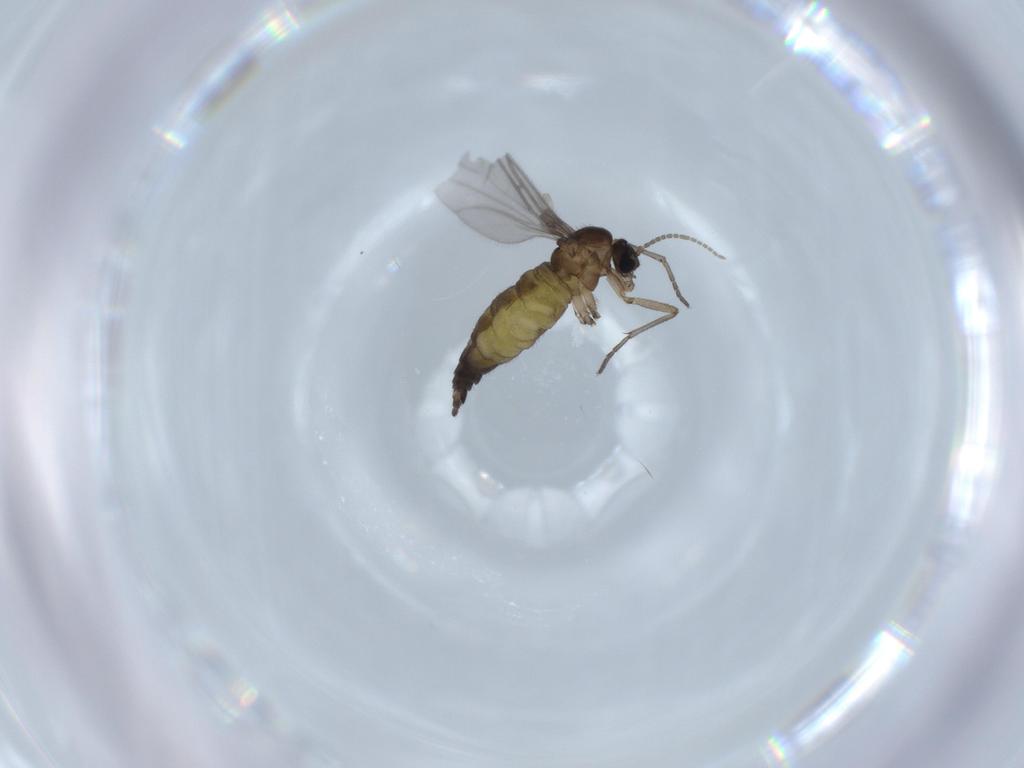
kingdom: Animalia
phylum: Arthropoda
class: Insecta
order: Diptera
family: Sciaridae
